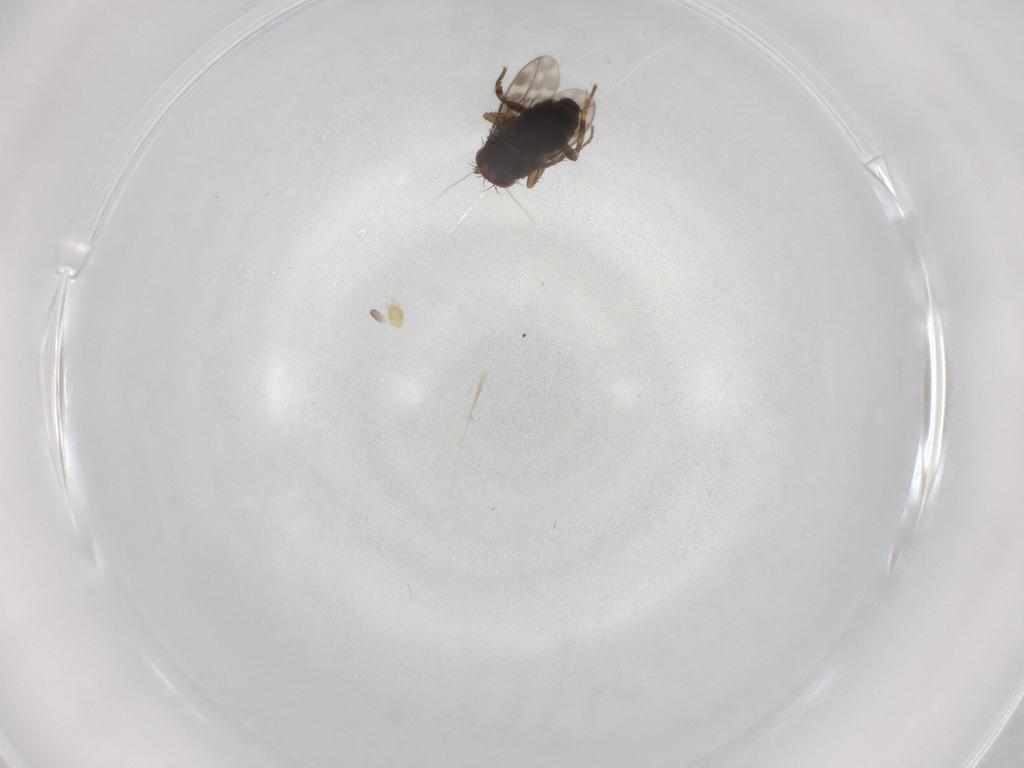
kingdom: Animalia
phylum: Arthropoda
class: Insecta
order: Diptera
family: Sphaeroceridae
